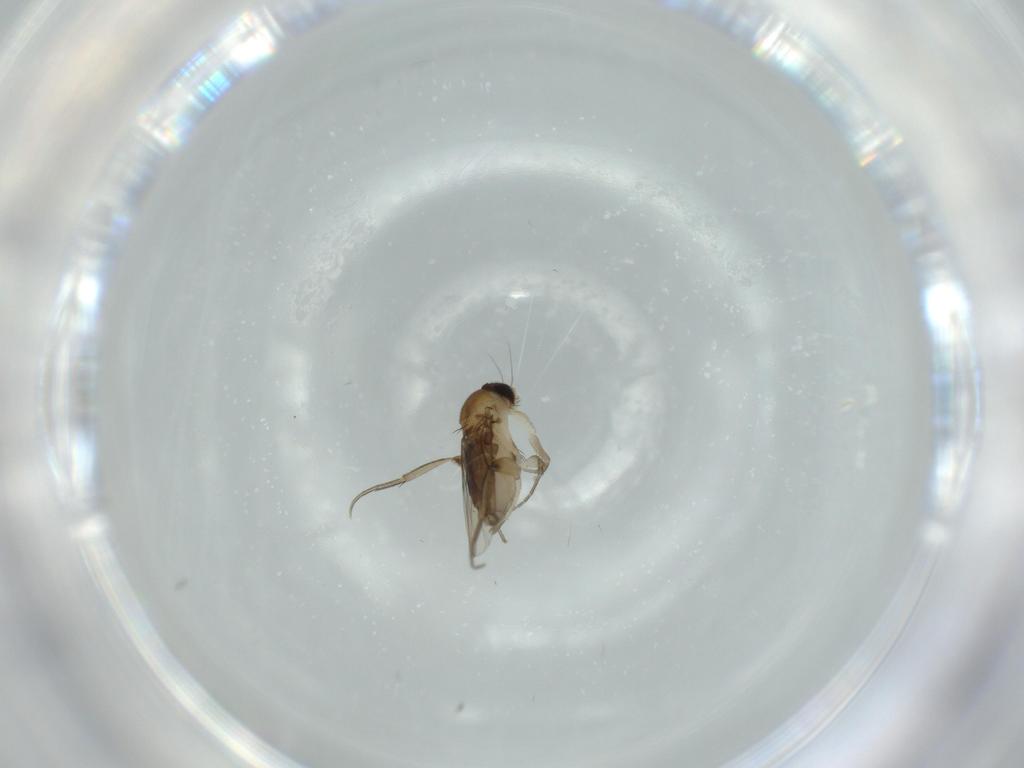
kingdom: Animalia
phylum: Arthropoda
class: Insecta
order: Diptera
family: Phoridae
